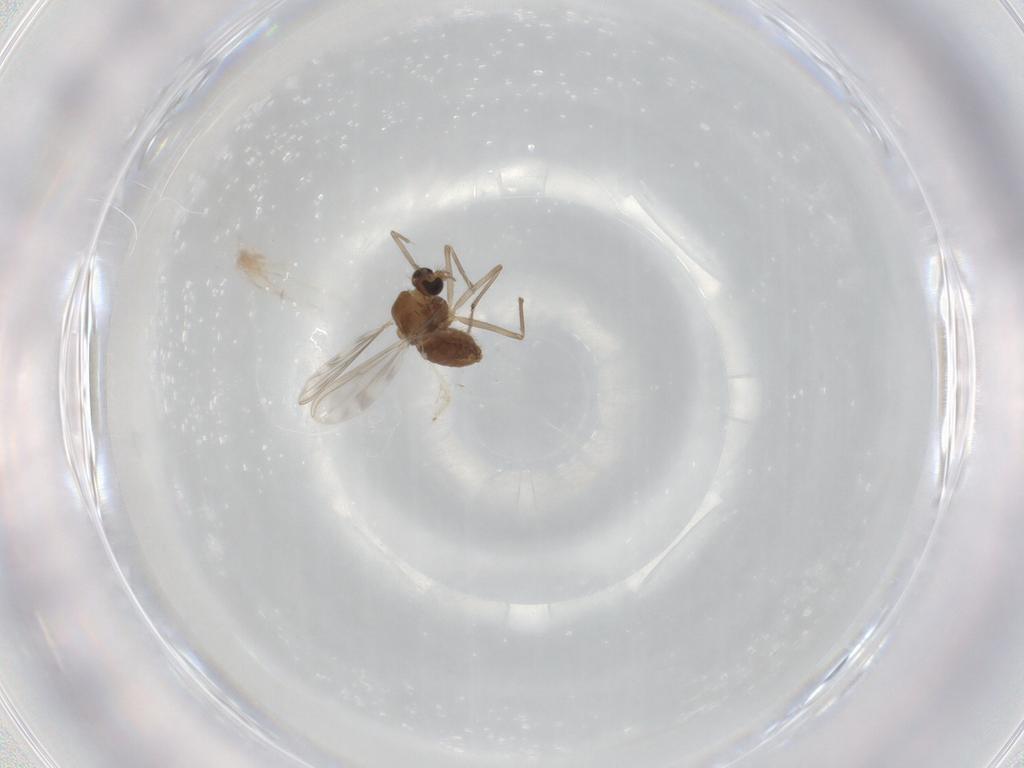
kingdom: Animalia
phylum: Arthropoda
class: Insecta
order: Diptera
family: Chironomidae
